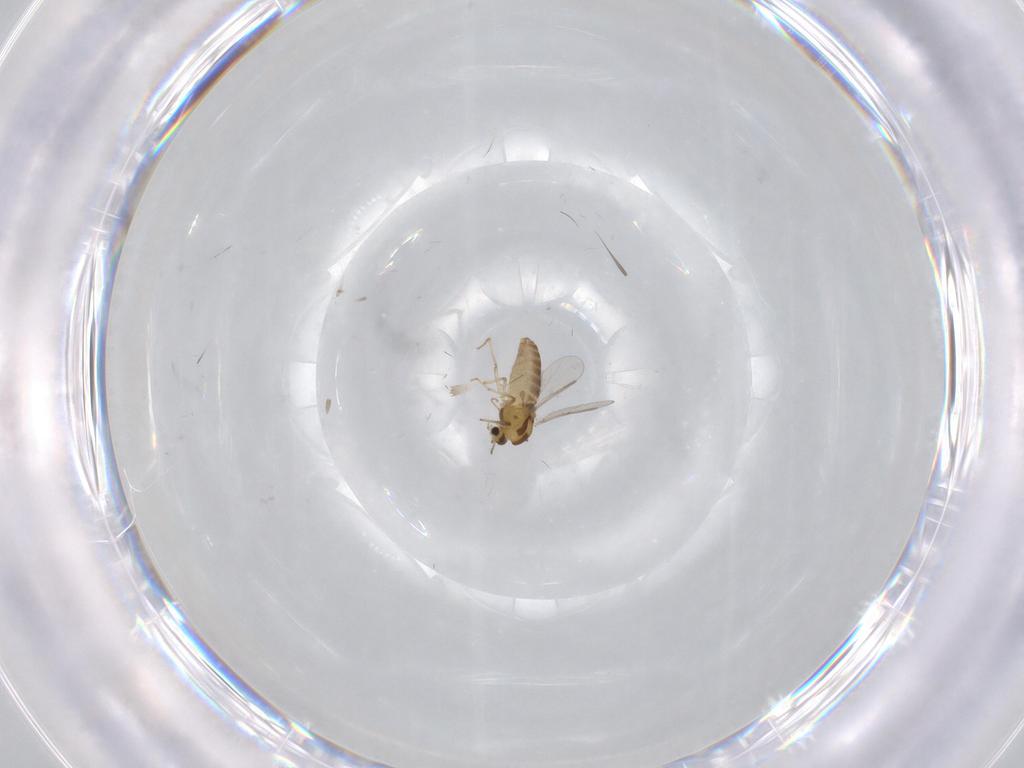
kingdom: Animalia
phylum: Arthropoda
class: Insecta
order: Diptera
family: Chironomidae
